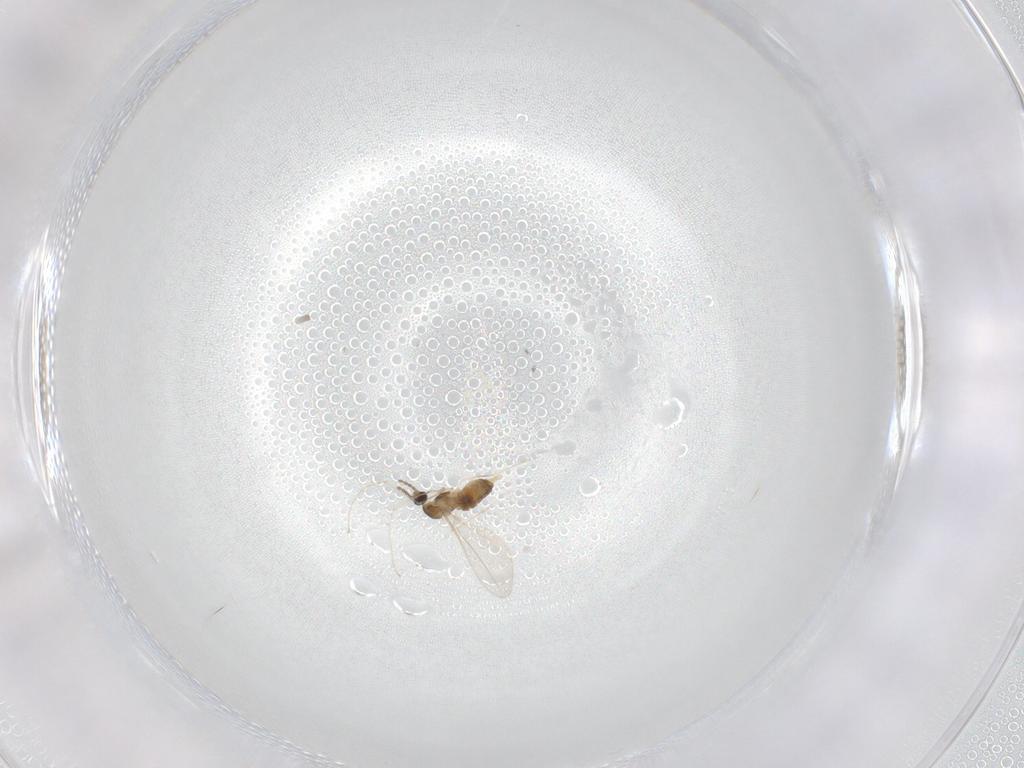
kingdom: Animalia
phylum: Arthropoda
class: Insecta
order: Diptera
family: Cecidomyiidae
